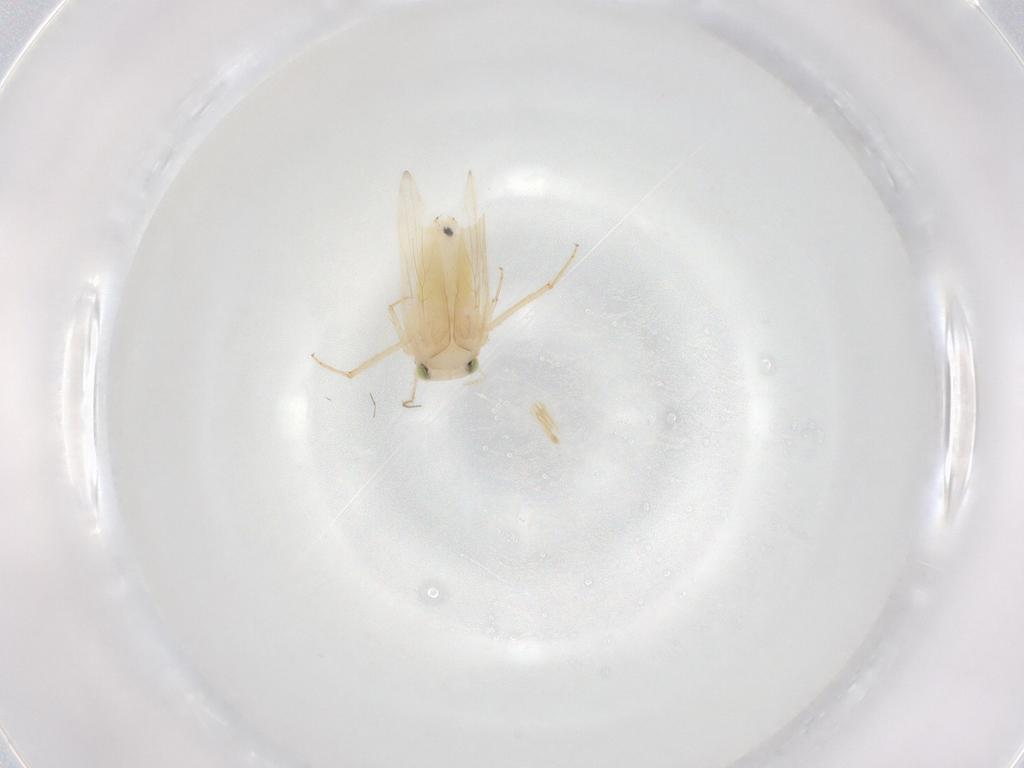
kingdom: Animalia
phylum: Arthropoda
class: Insecta
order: Psocodea
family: Lepidopsocidae
